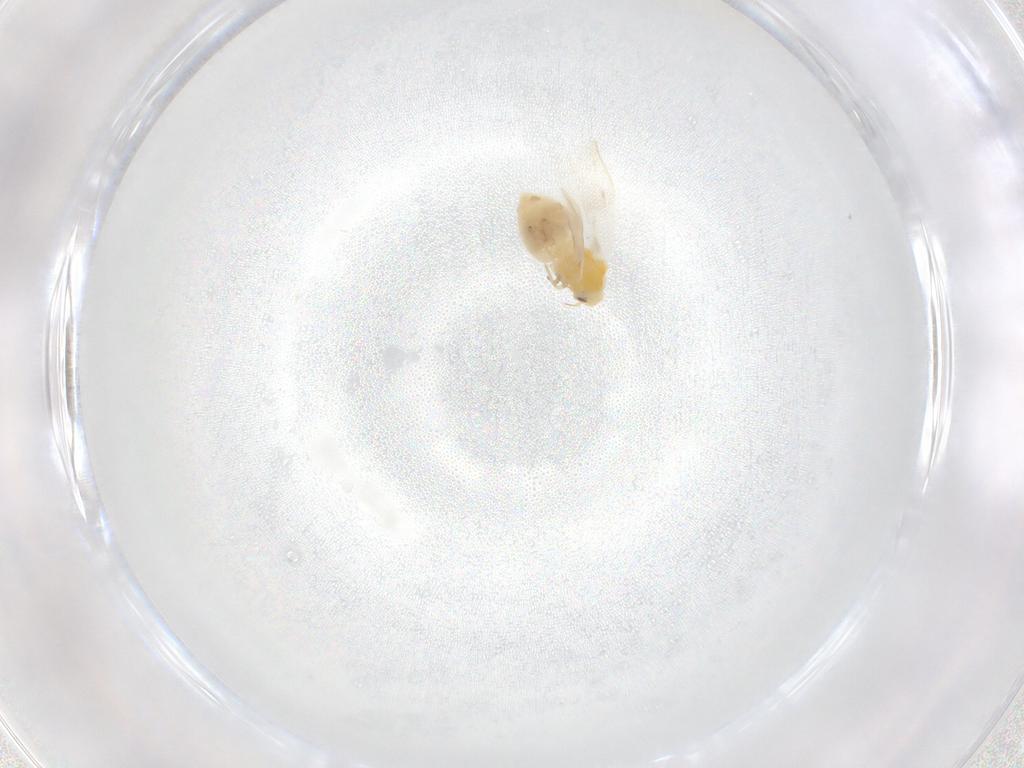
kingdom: Animalia
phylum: Arthropoda
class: Insecta
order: Hemiptera
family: Aleyrodidae
